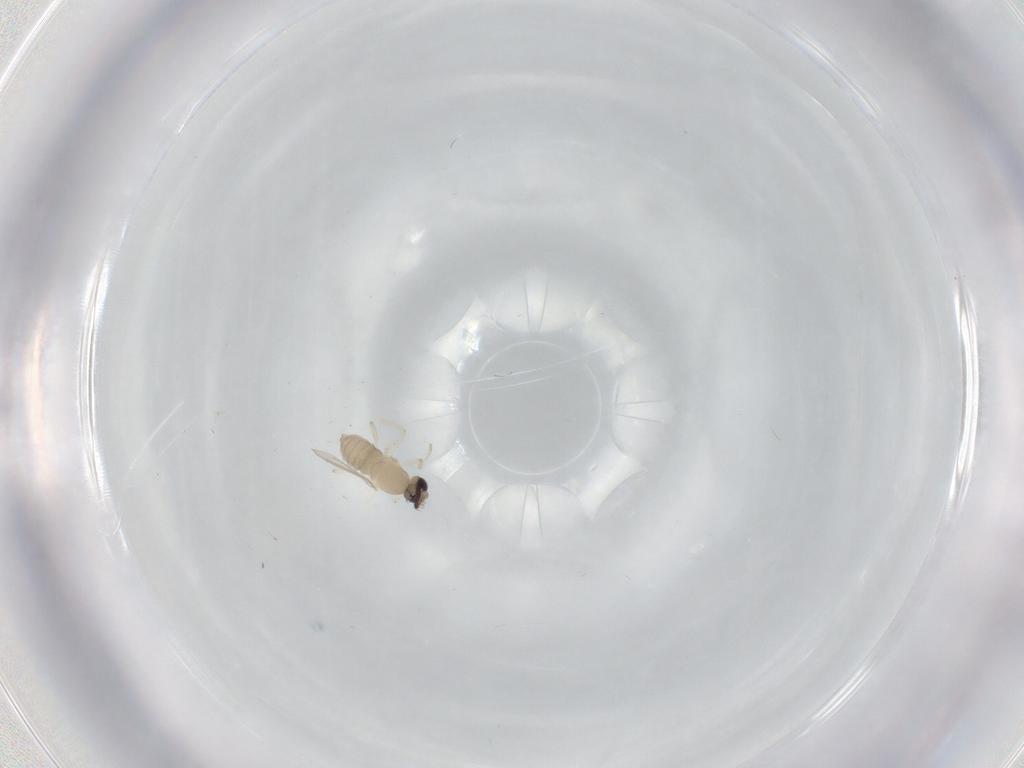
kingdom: Animalia
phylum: Arthropoda
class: Insecta
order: Diptera
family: Cecidomyiidae
